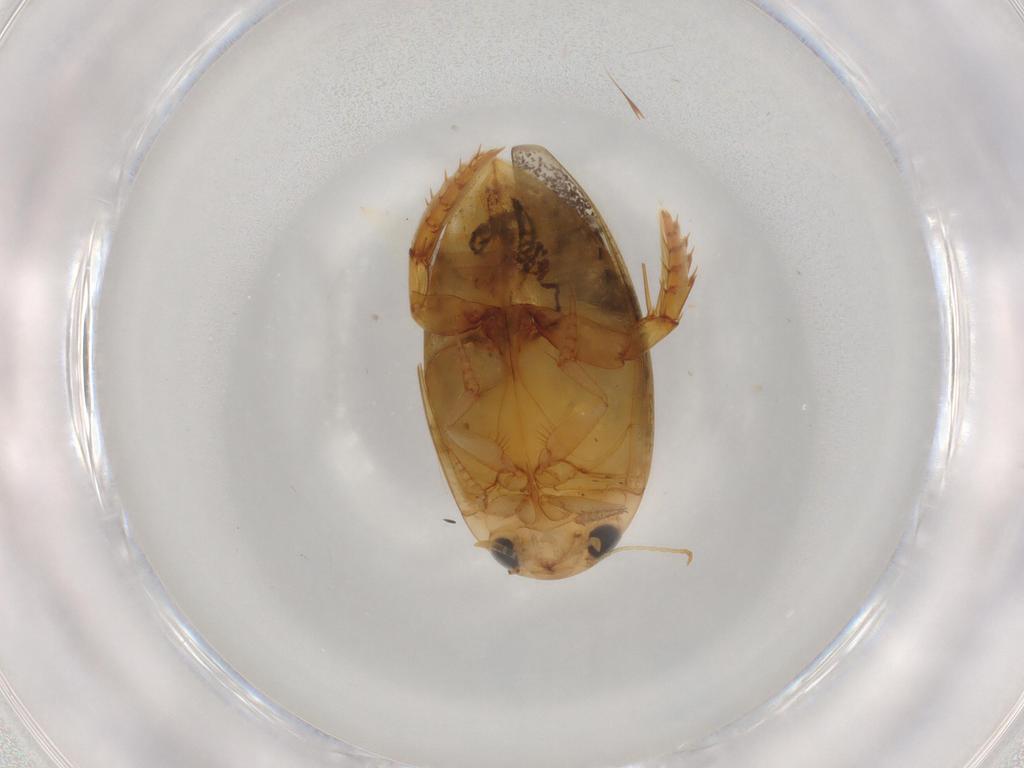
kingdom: Animalia
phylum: Arthropoda
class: Insecta
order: Coleoptera
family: Dytiscidae
